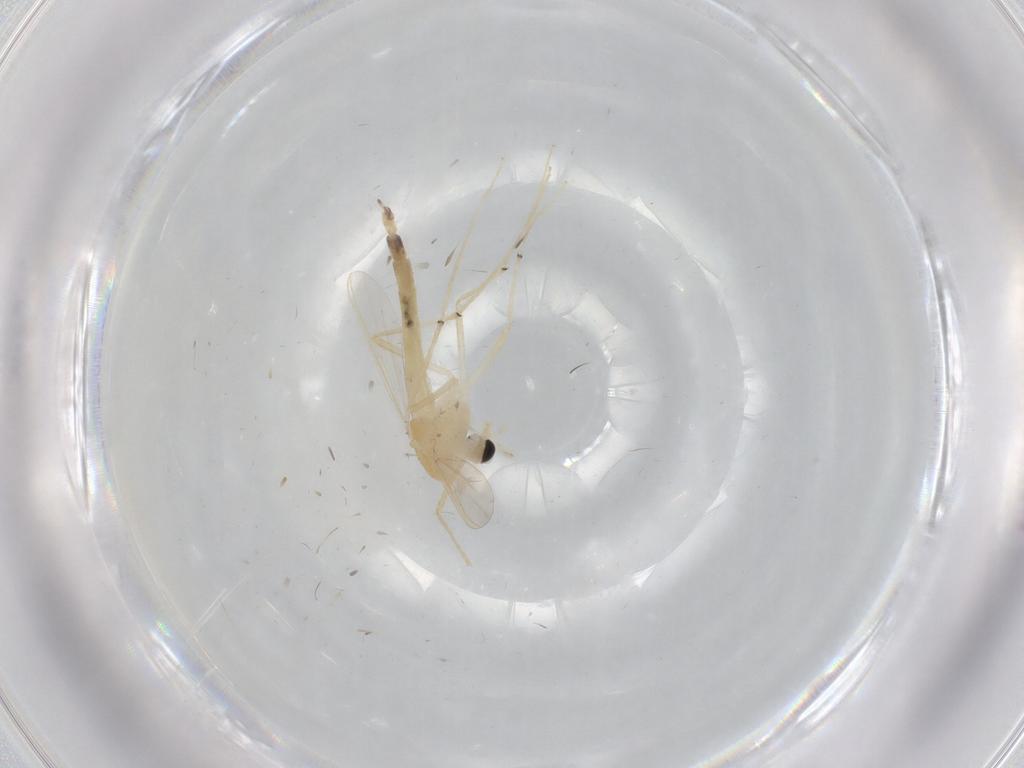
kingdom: Animalia
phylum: Arthropoda
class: Insecta
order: Diptera
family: Chironomidae
